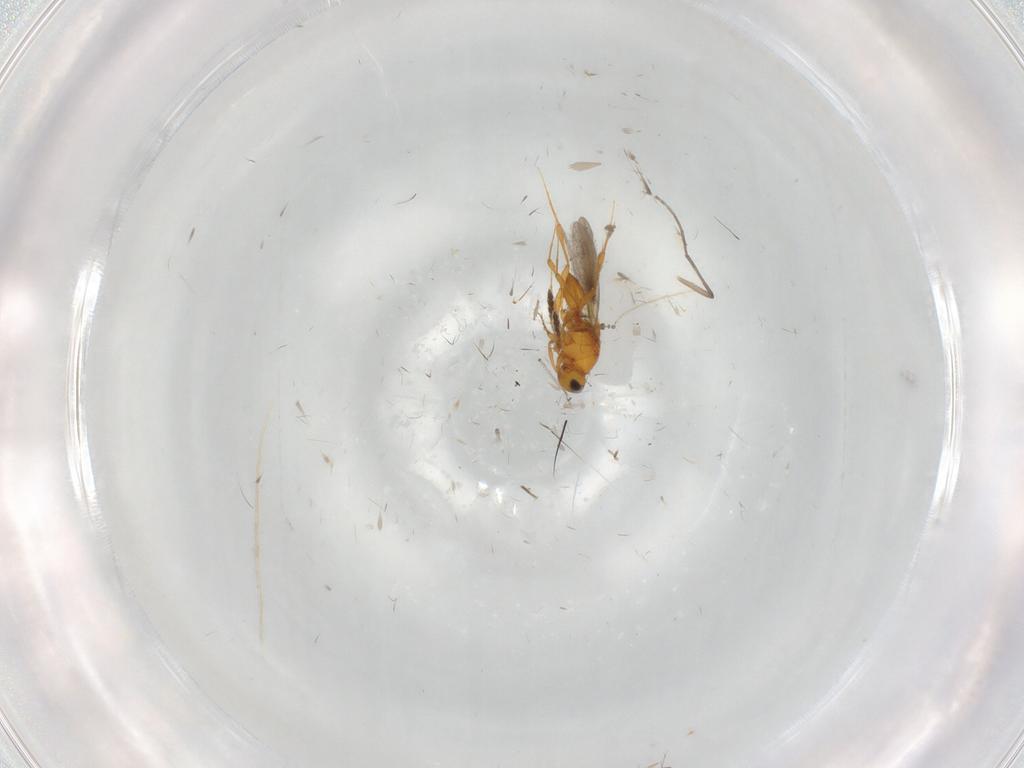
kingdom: Animalia
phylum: Arthropoda
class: Insecta
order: Hymenoptera
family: Platygastridae
